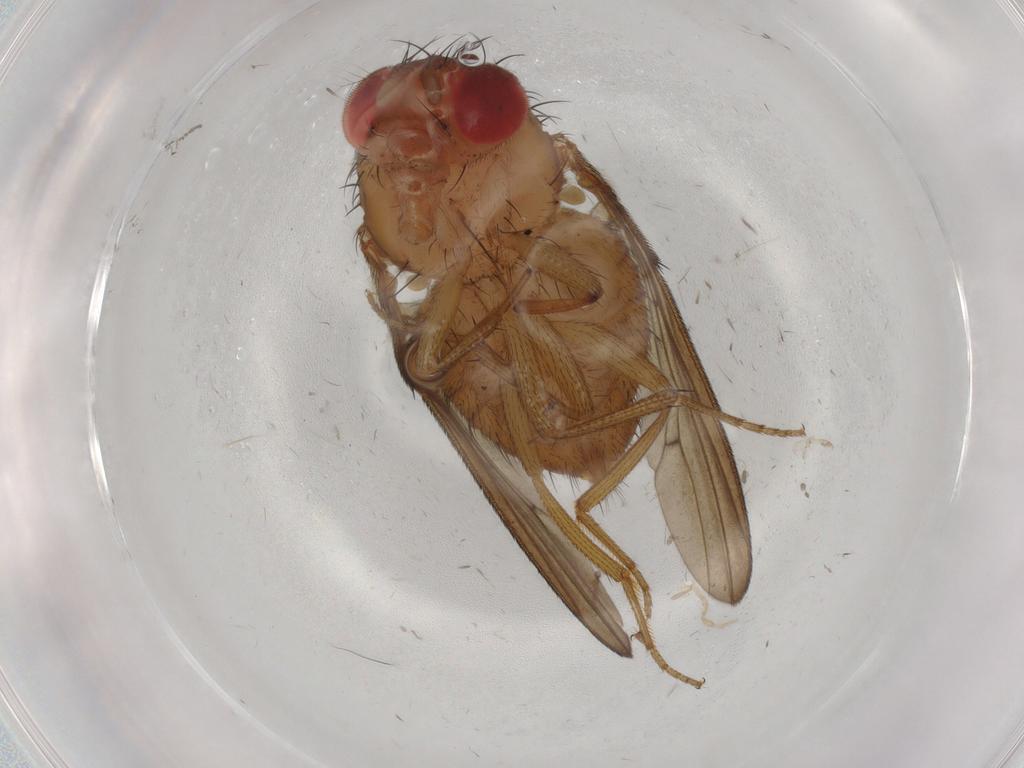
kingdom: Animalia
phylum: Arthropoda
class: Insecta
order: Diptera
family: Drosophilidae
